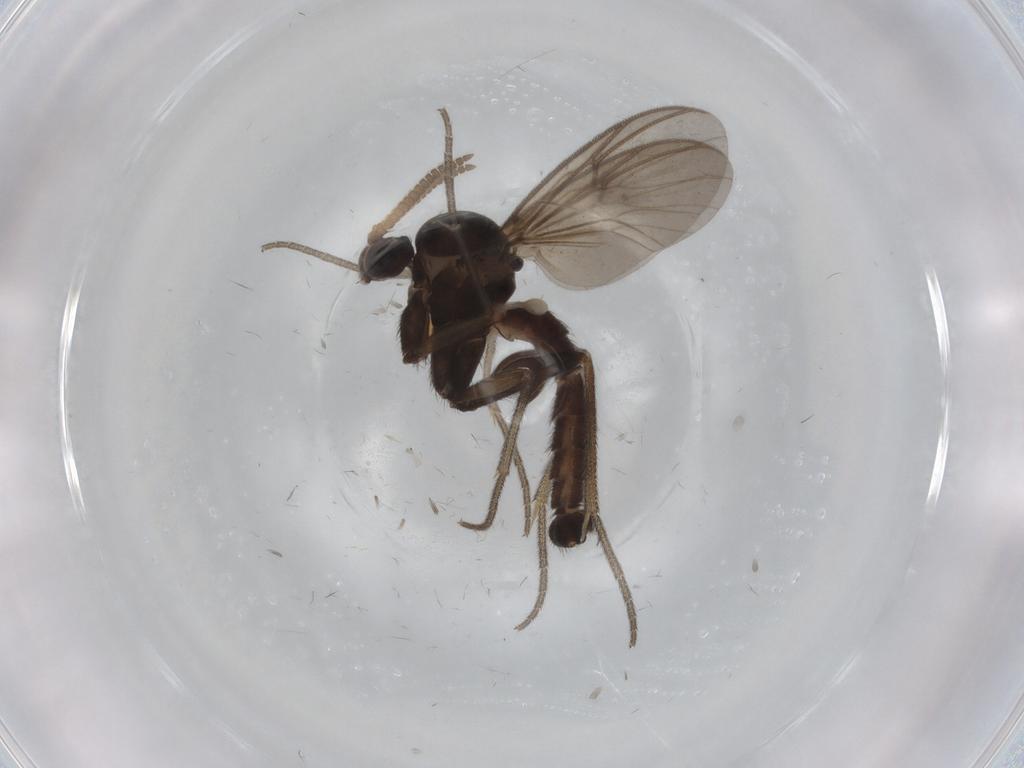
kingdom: Animalia
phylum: Arthropoda
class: Insecta
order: Diptera
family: Mycetophilidae
